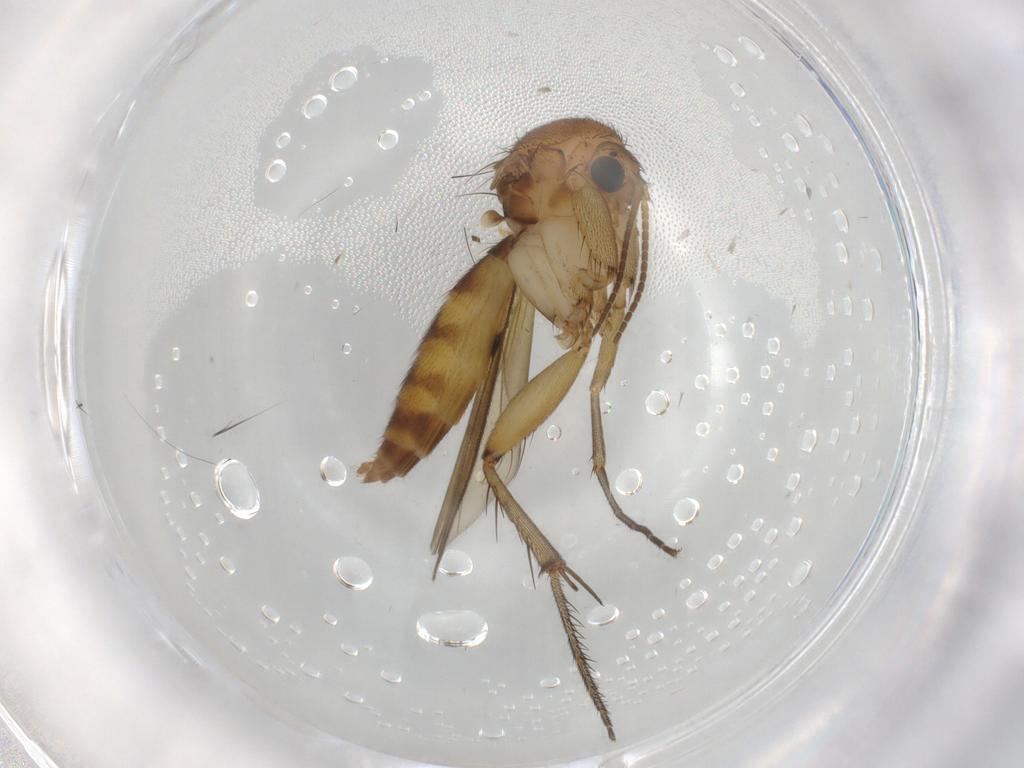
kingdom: Animalia
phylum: Arthropoda
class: Insecta
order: Diptera
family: Mycetophilidae
